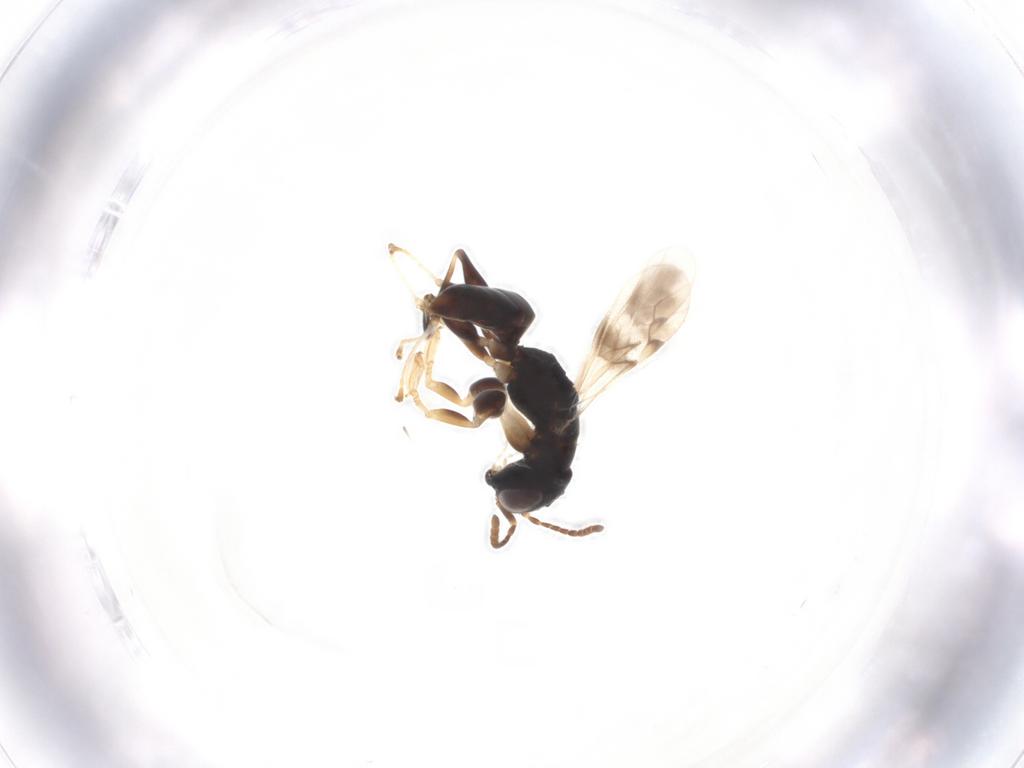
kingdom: Animalia
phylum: Arthropoda
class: Insecta
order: Hymenoptera
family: Dryinidae
